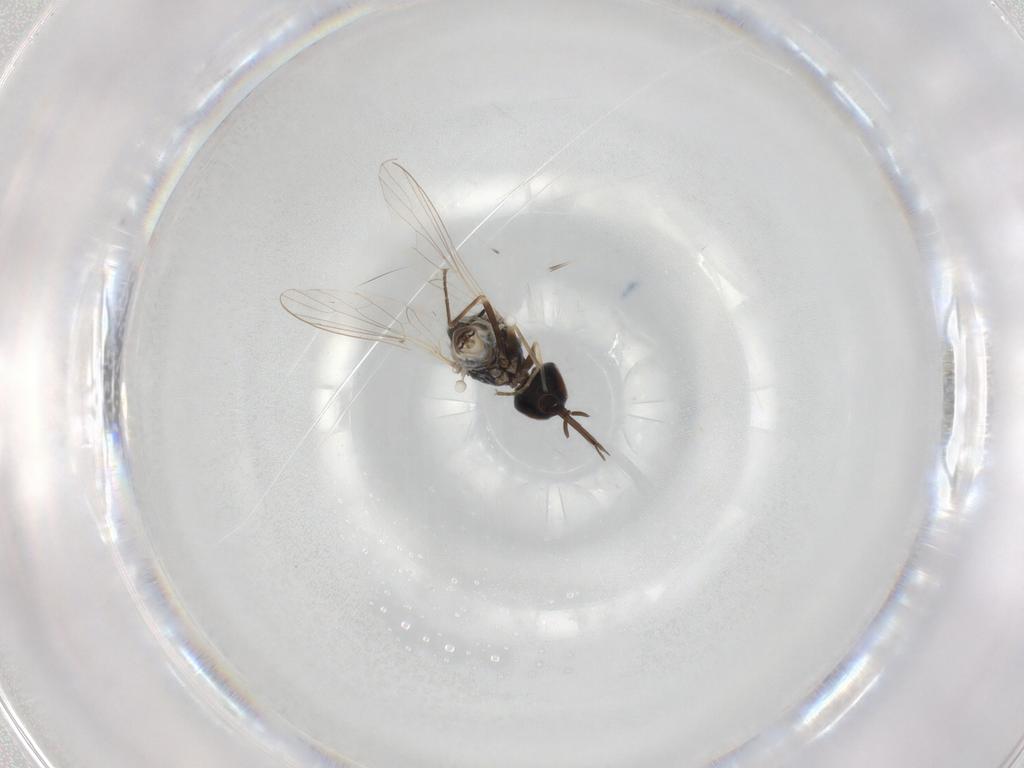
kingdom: Animalia
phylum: Arthropoda
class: Insecta
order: Diptera
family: Bombyliidae
